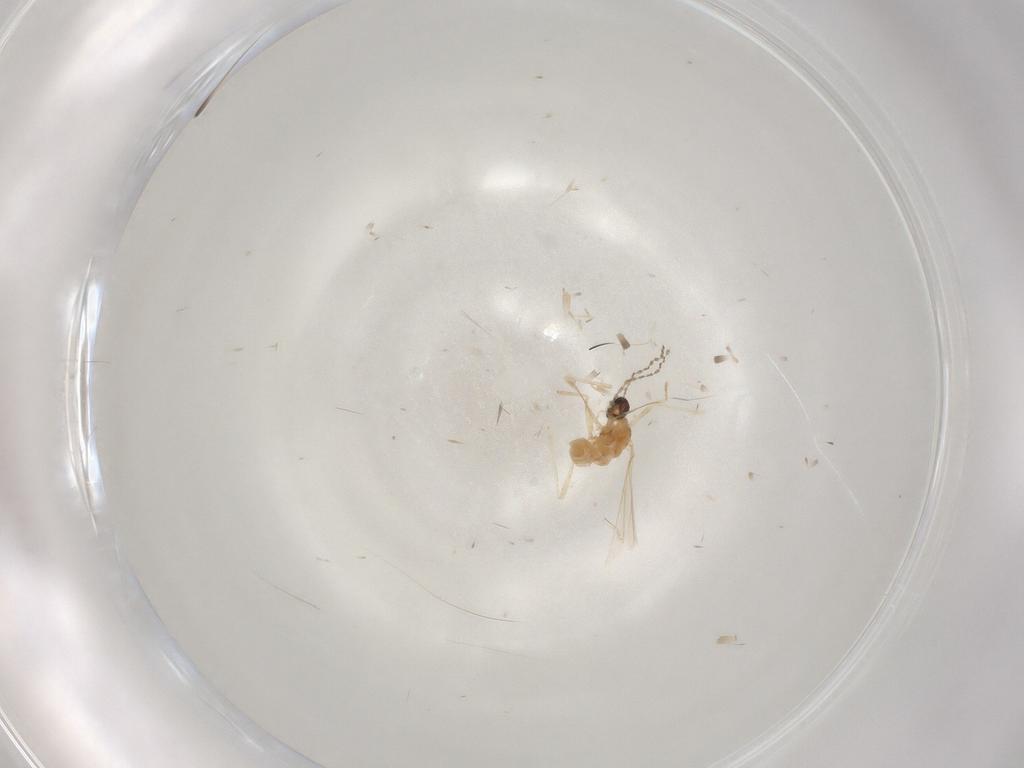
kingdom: Animalia
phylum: Arthropoda
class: Insecta
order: Diptera
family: Cecidomyiidae
